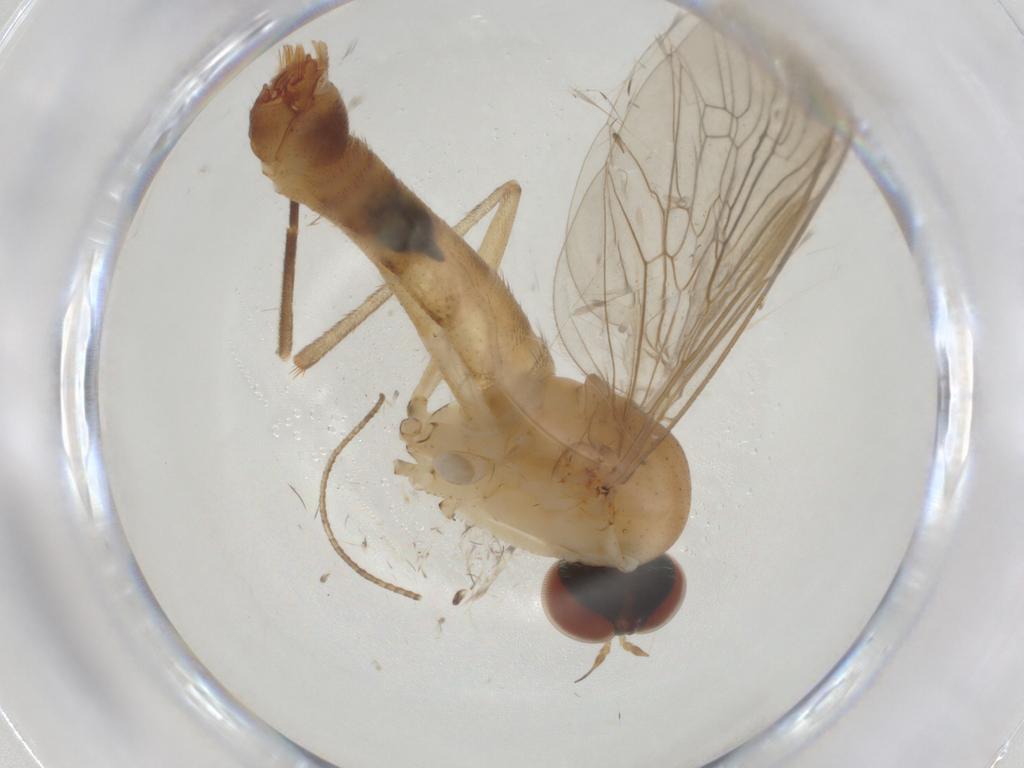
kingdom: Animalia
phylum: Arthropoda
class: Insecta
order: Diptera
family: Apsilocephalidae
